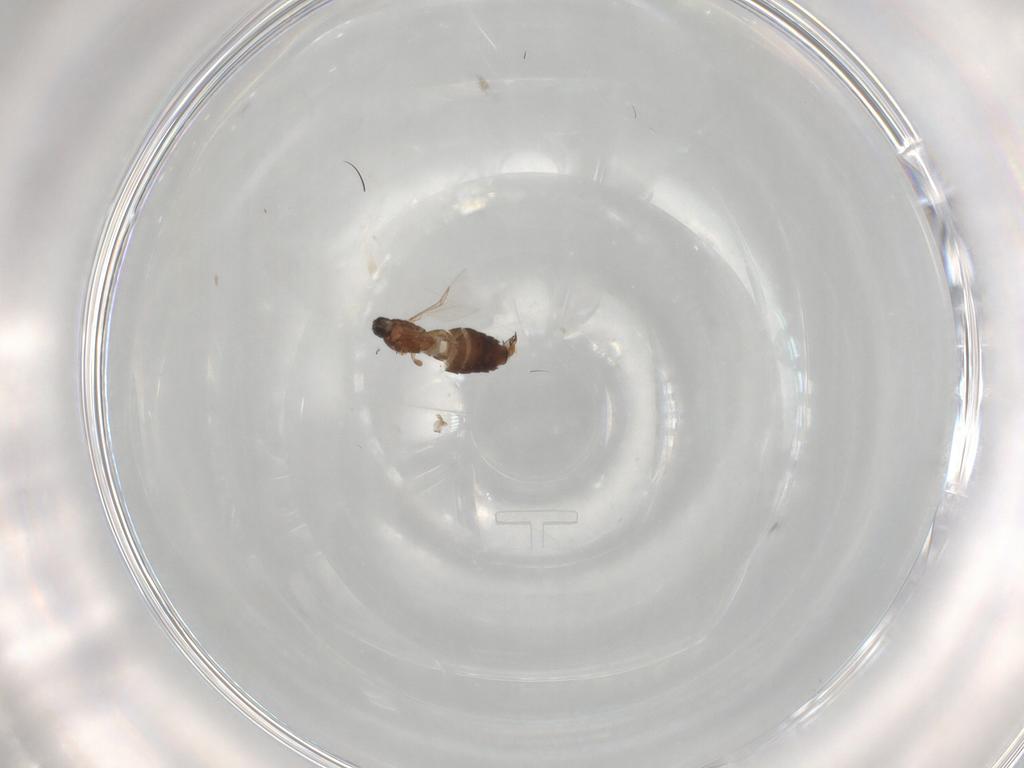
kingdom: Animalia
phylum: Arthropoda
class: Insecta
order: Diptera
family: Scatopsidae
